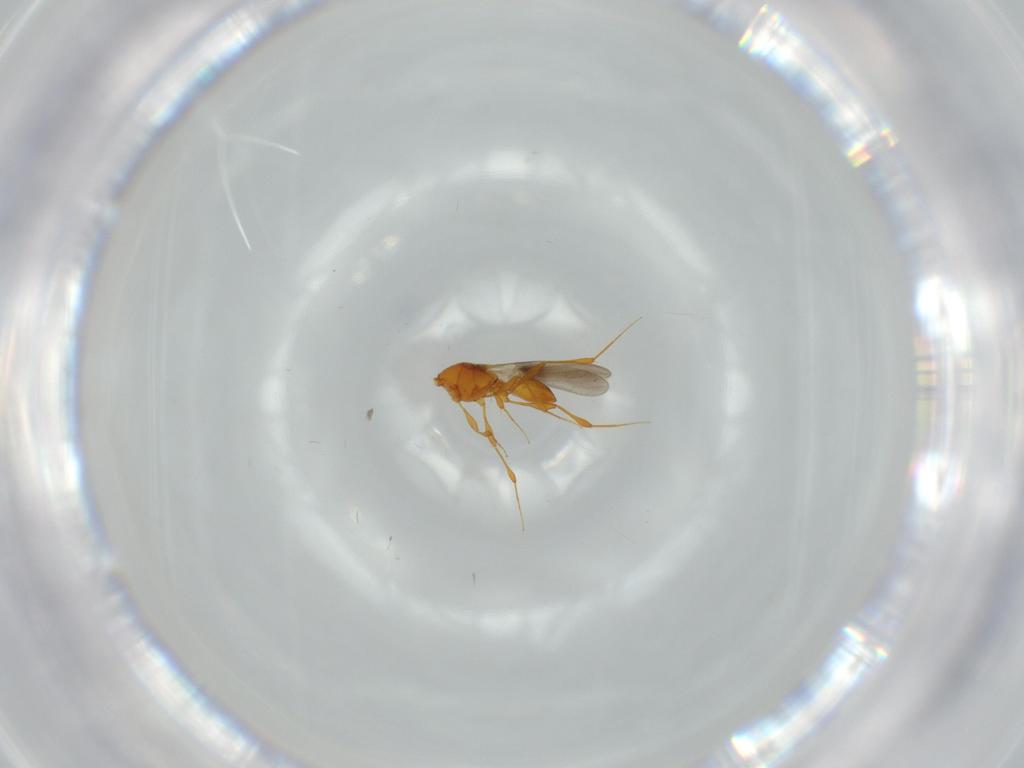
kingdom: Animalia
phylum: Arthropoda
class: Insecta
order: Hymenoptera
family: Platygastridae
